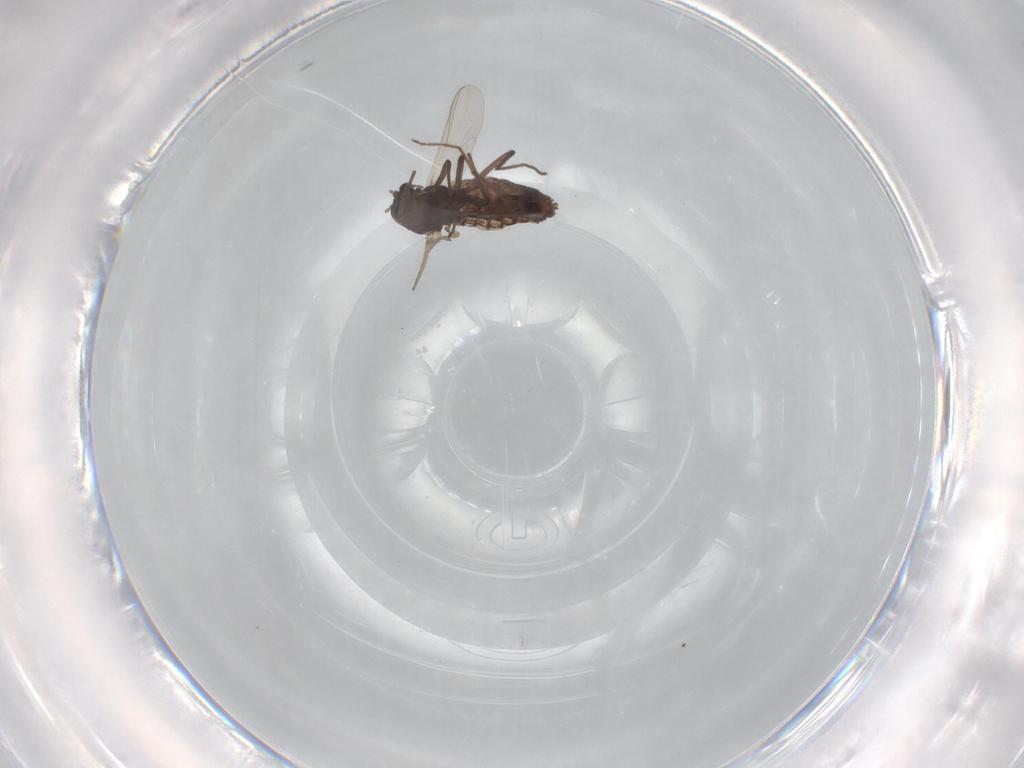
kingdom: Animalia
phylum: Arthropoda
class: Insecta
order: Diptera
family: Chironomidae
